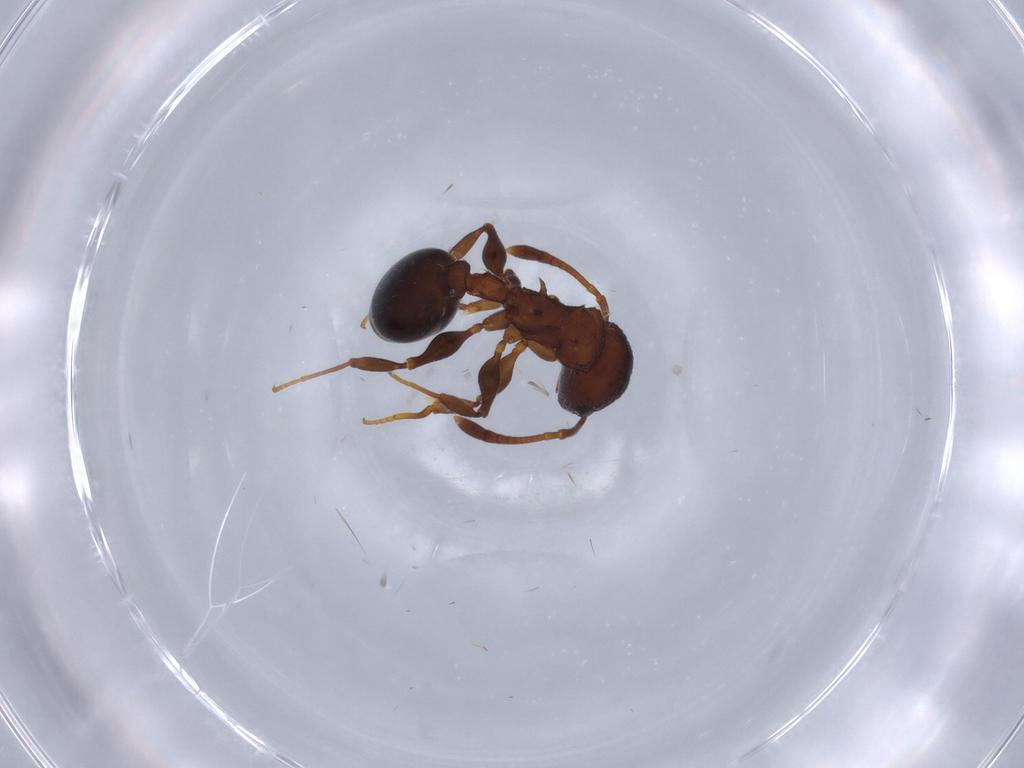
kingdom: Animalia
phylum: Arthropoda
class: Insecta
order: Hymenoptera
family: Formicidae
